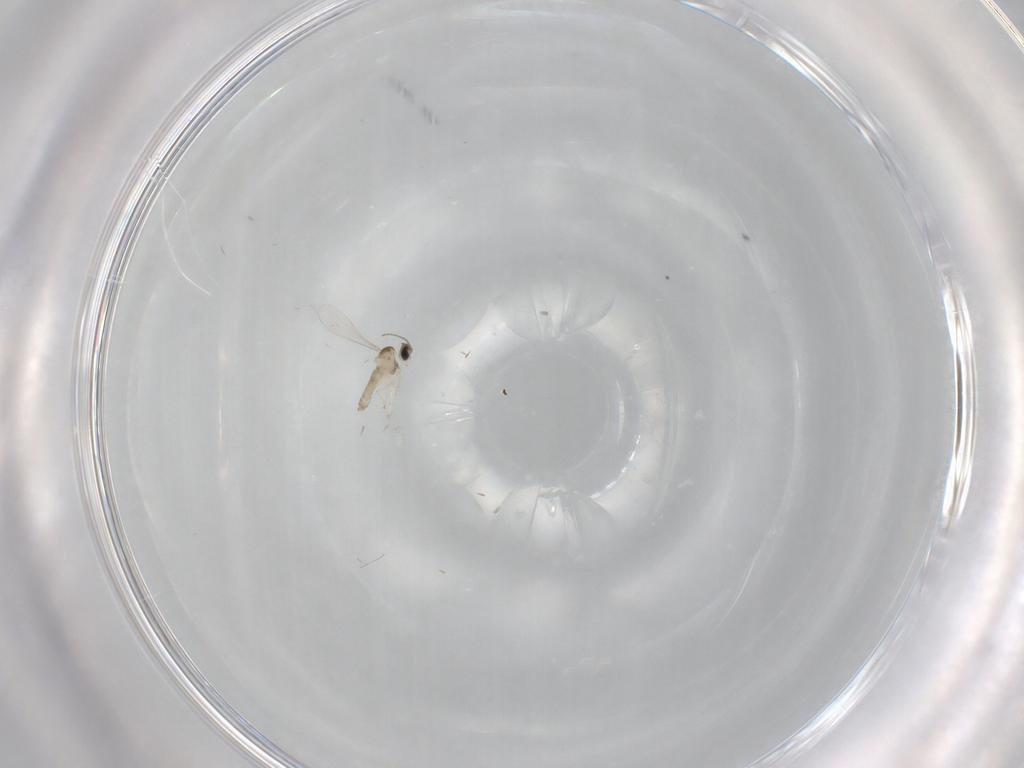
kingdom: Animalia
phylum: Arthropoda
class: Insecta
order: Diptera
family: Cecidomyiidae
